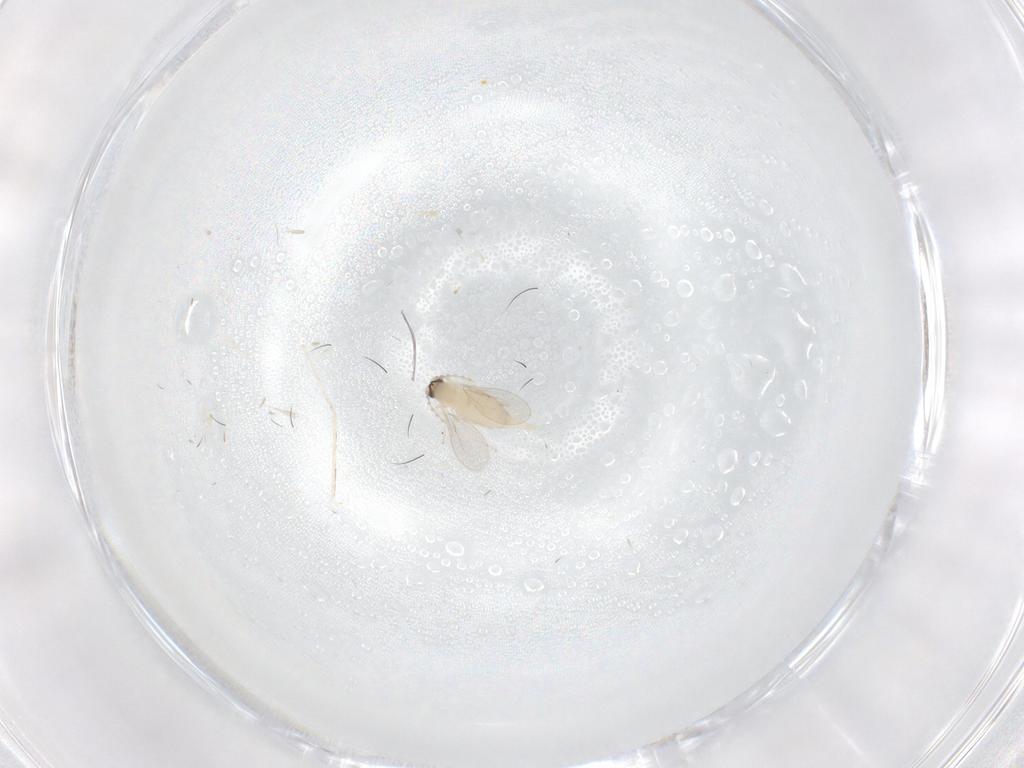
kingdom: Animalia
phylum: Arthropoda
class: Insecta
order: Diptera
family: Cecidomyiidae
